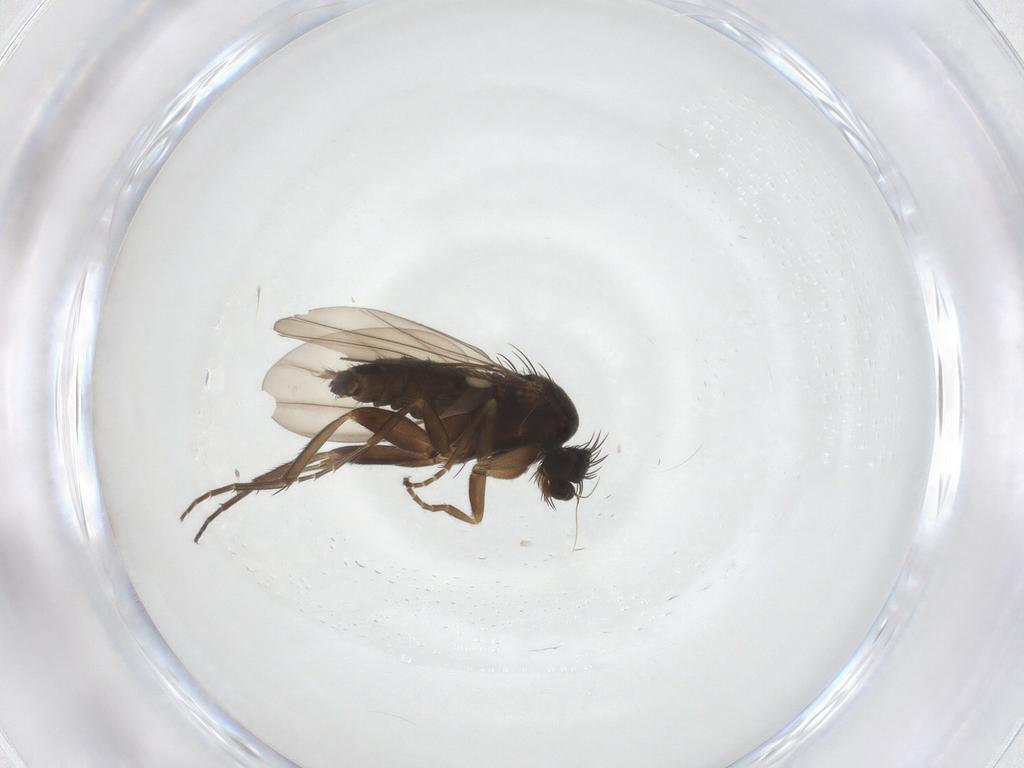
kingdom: Animalia
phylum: Arthropoda
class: Insecta
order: Diptera
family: Phoridae
